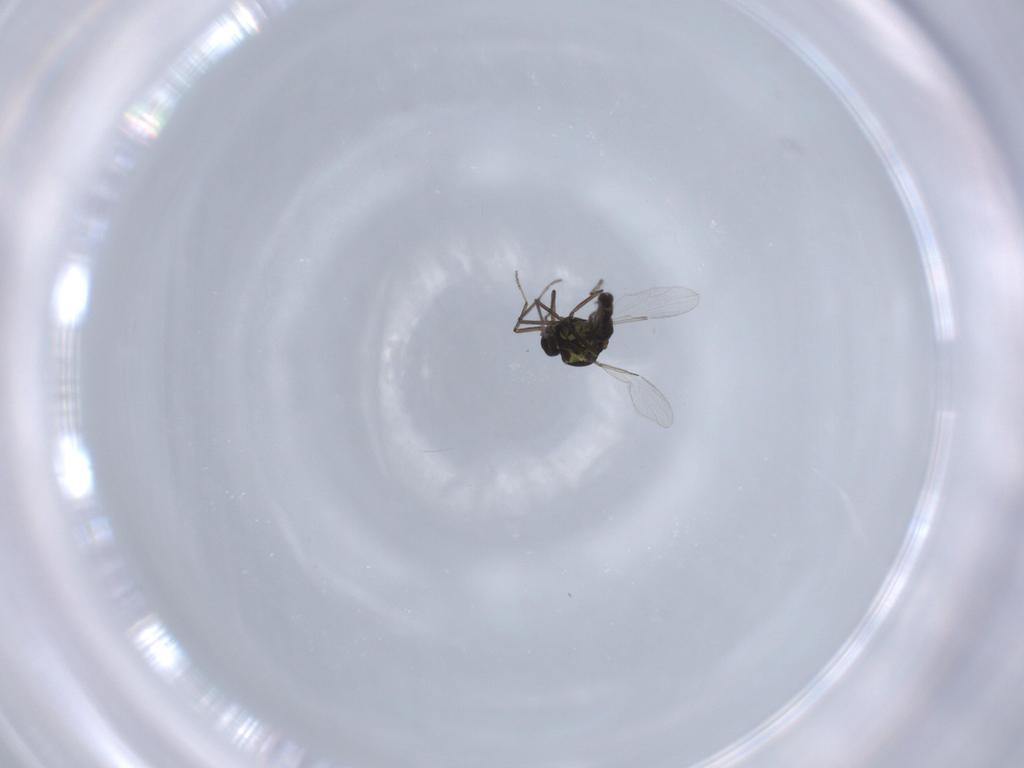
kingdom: Animalia
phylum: Arthropoda
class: Insecta
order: Diptera
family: Ceratopogonidae
